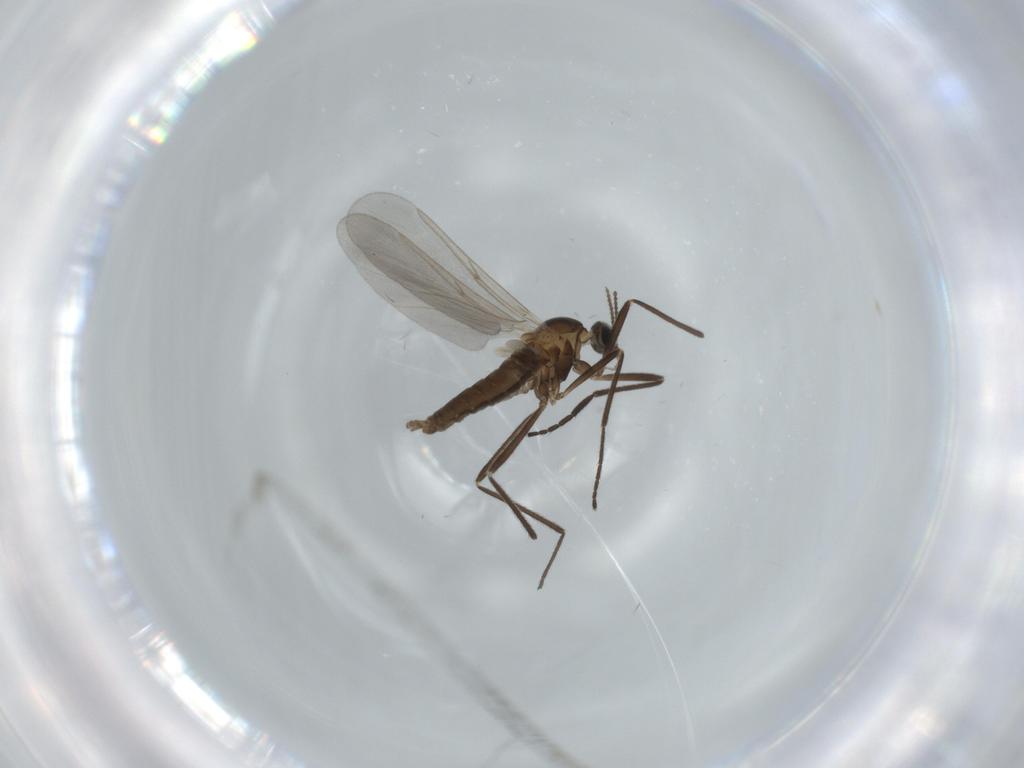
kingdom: Animalia
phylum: Arthropoda
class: Insecta
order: Diptera
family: Cecidomyiidae
